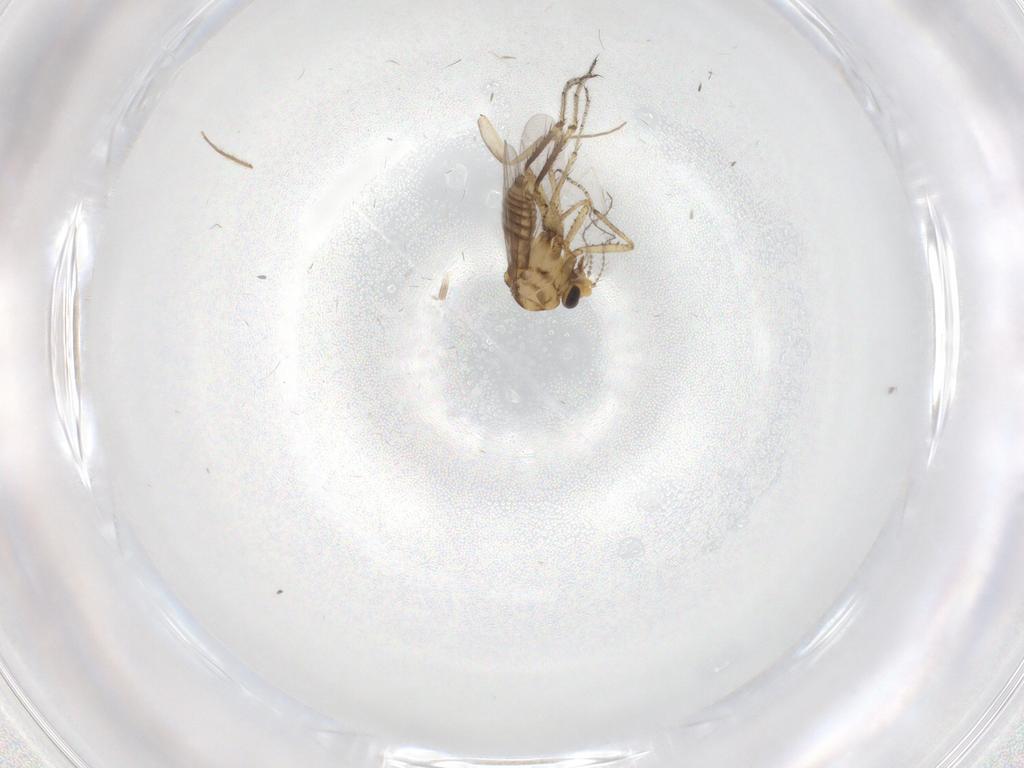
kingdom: Animalia
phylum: Arthropoda
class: Insecta
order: Diptera
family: Ceratopogonidae
